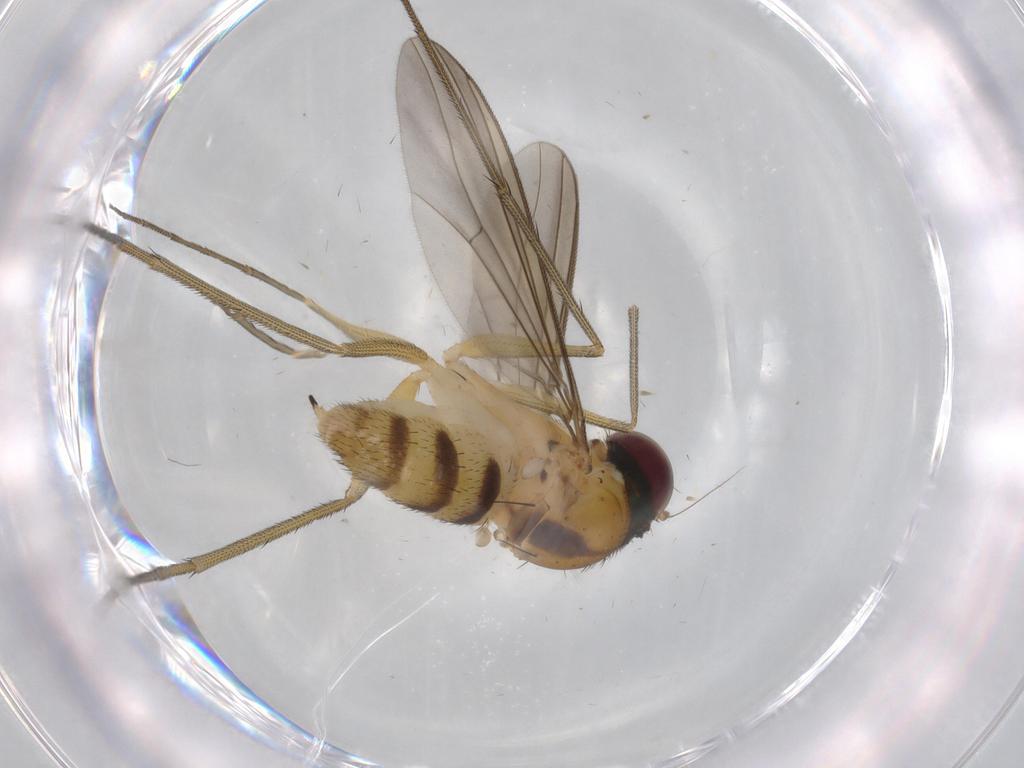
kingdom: Animalia
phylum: Arthropoda
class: Insecta
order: Diptera
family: Dolichopodidae
